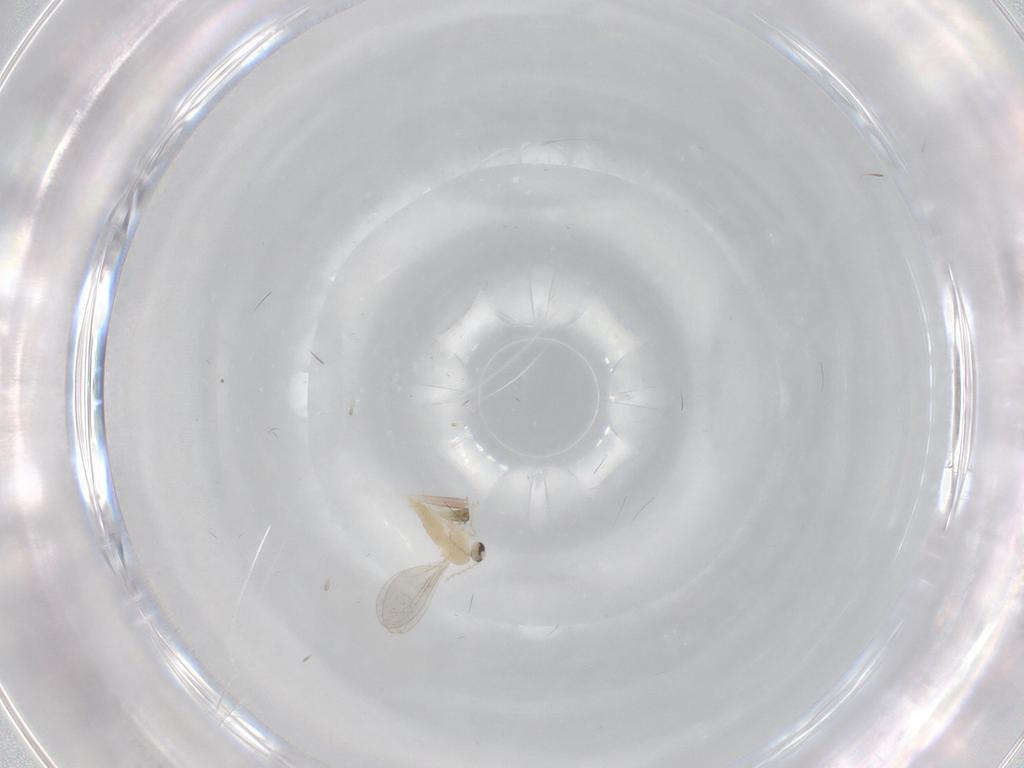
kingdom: Animalia
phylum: Arthropoda
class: Insecta
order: Diptera
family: Cecidomyiidae
